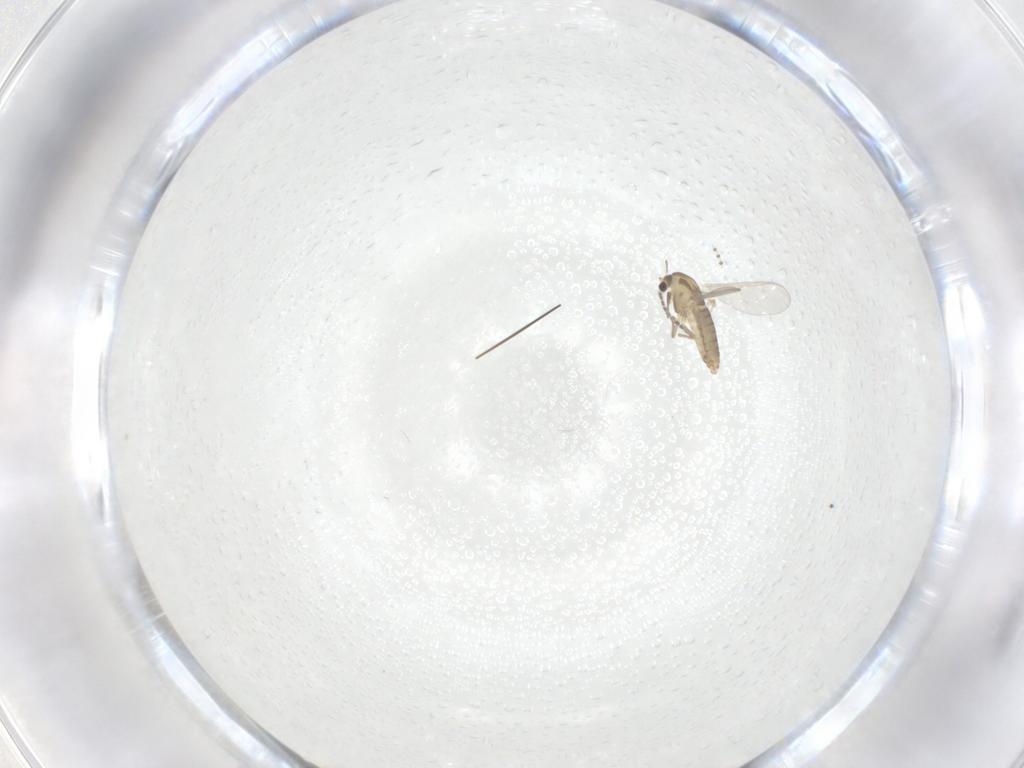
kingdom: Animalia
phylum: Arthropoda
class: Insecta
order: Diptera
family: Psychodidae
